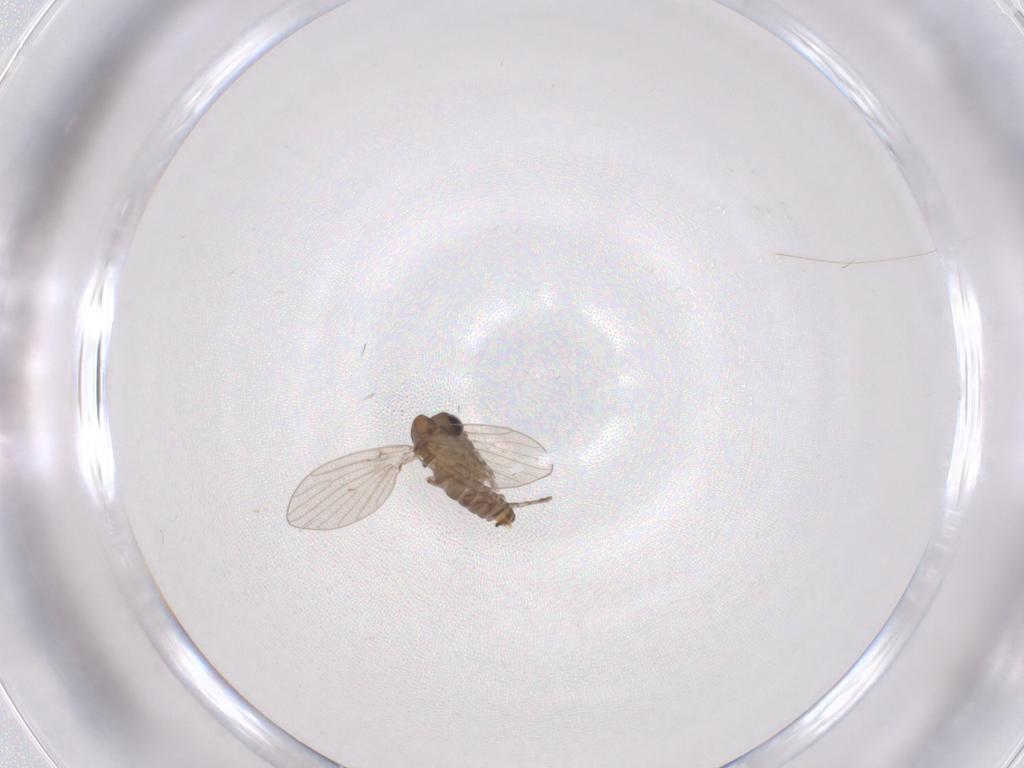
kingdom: Animalia
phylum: Arthropoda
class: Insecta
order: Diptera
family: Psychodidae
